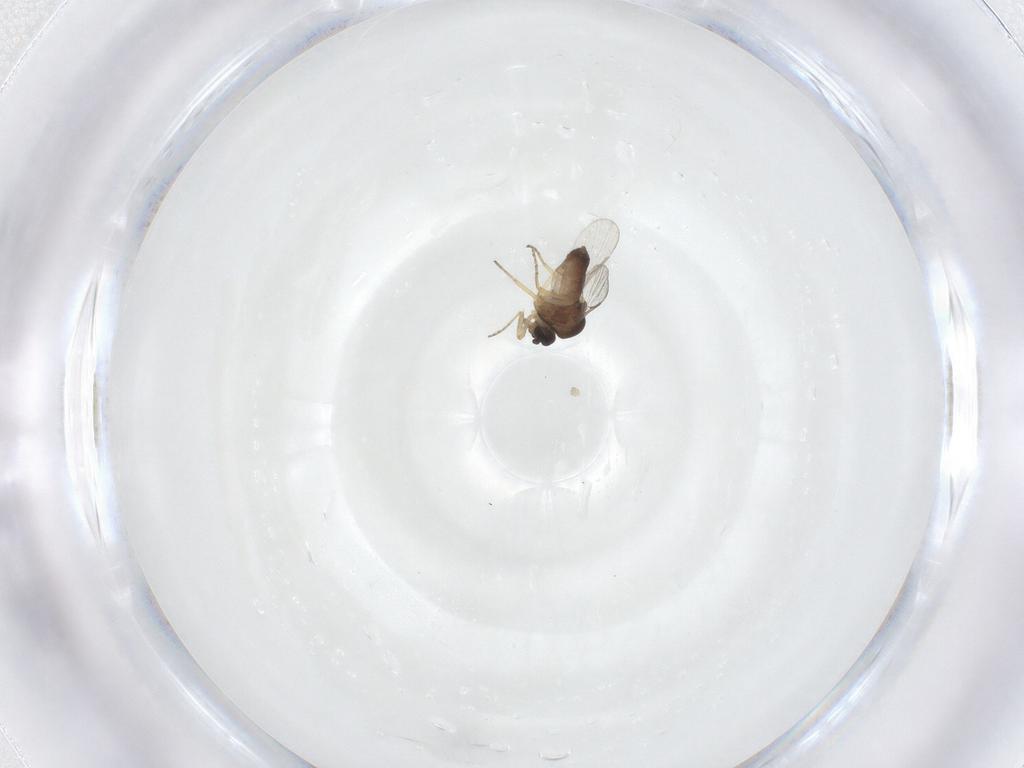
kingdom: Animalia
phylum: Arthropoda
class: Insecta
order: Diptera
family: Ceratopogonidae
